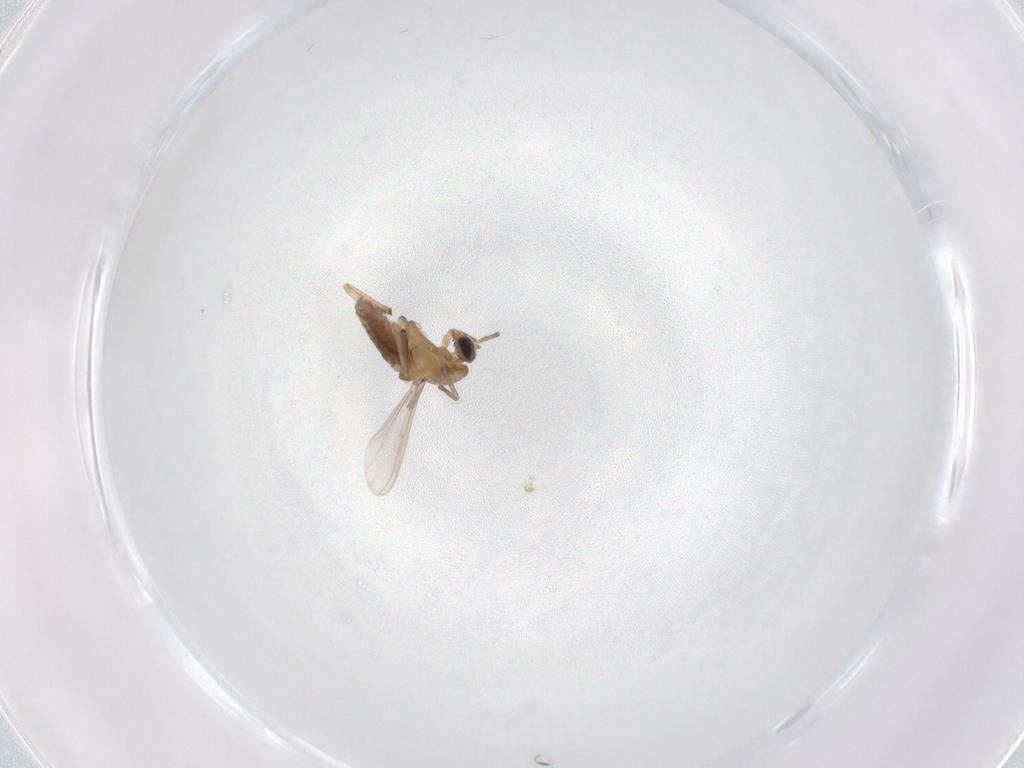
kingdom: Animalia
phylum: Arthropoda
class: Insecta
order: Diptera
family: Chironomidae
